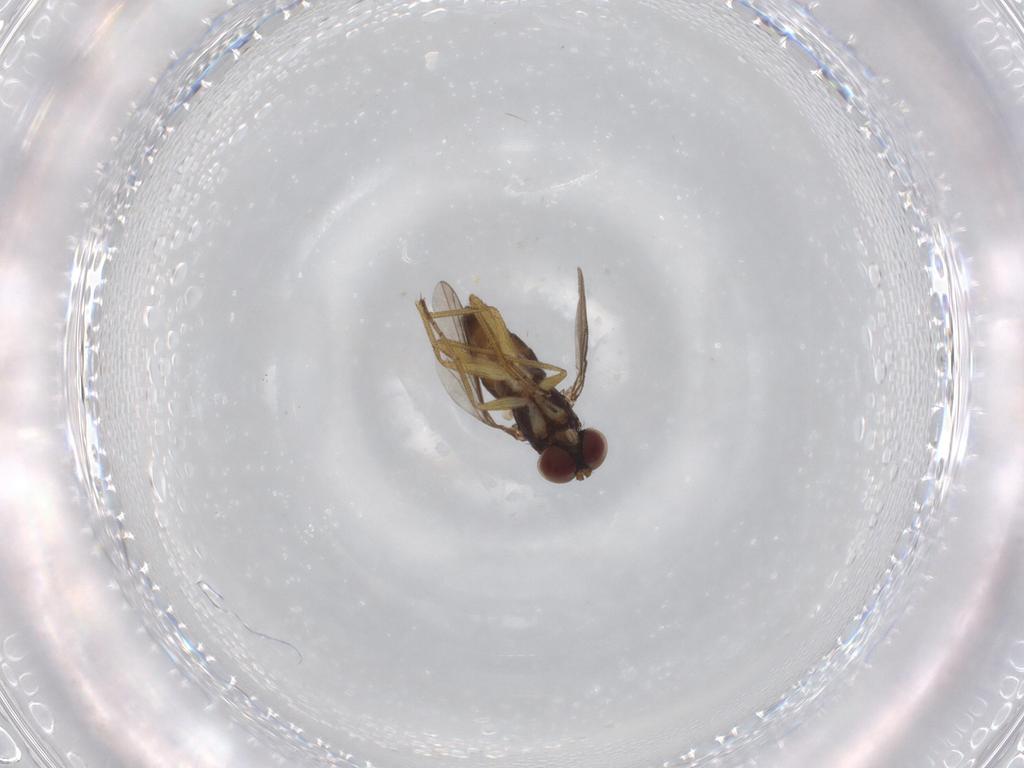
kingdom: Animalia
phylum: Arthropoda
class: Insecta
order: Diptera
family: Dolichopodidae
